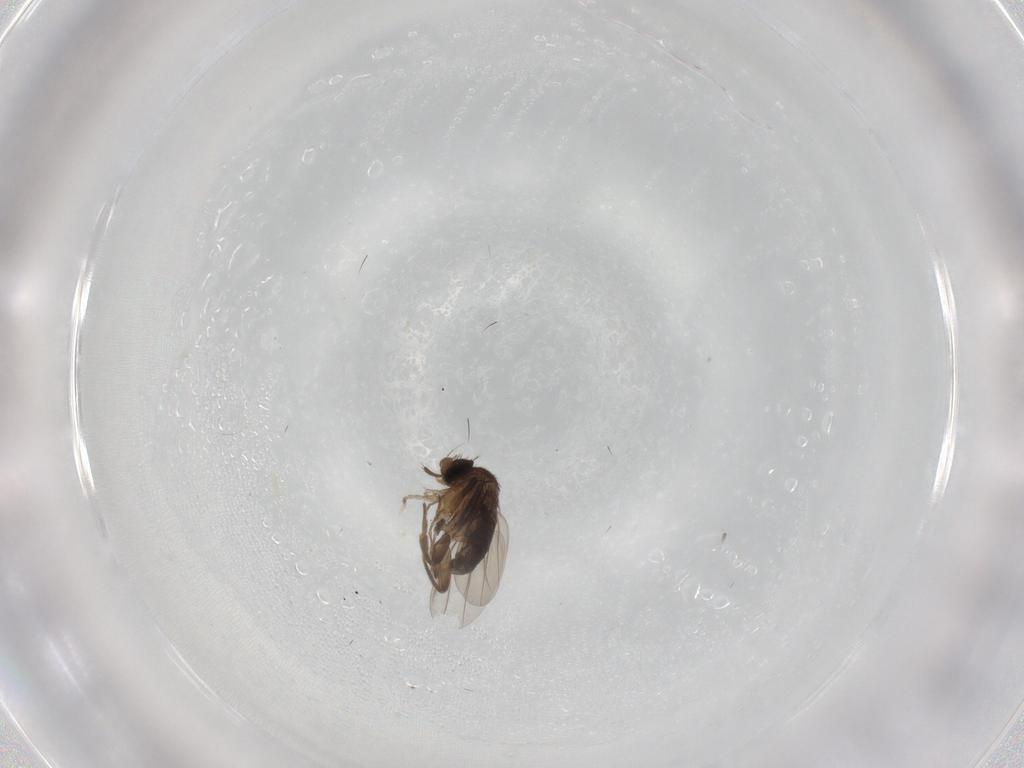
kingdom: Animalia
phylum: Arthropoda
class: Insecta
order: Diptera
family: Phoridae
